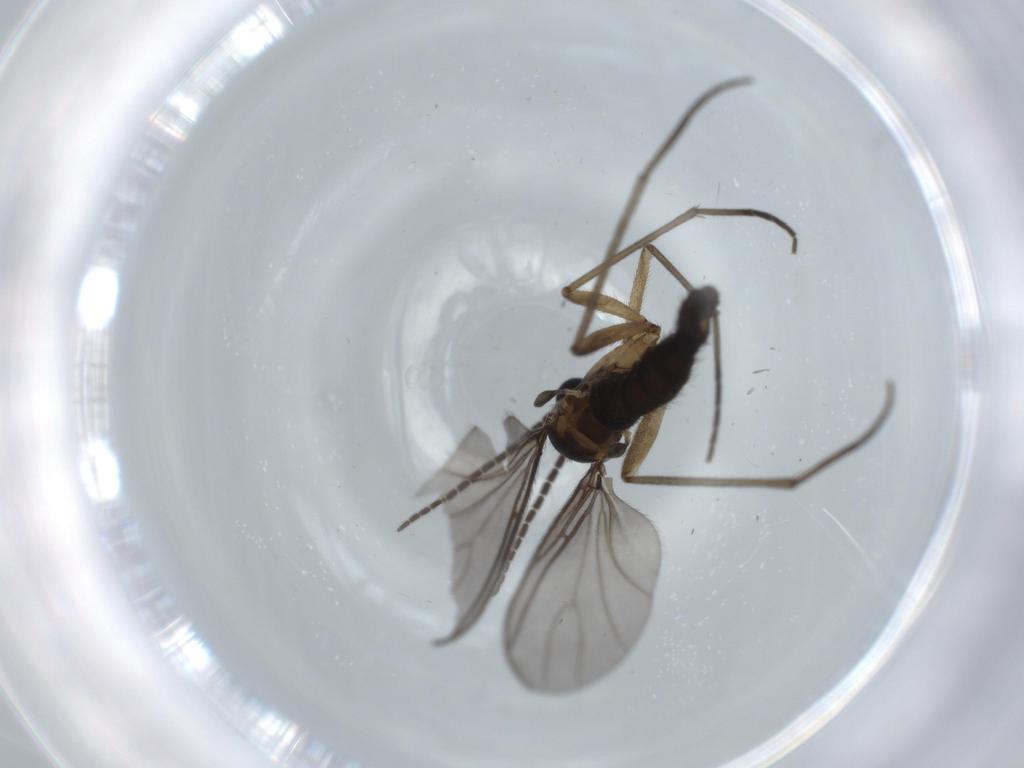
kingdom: Animalia
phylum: Arthropoda
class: Insecta
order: Diptera
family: Sciaridae
